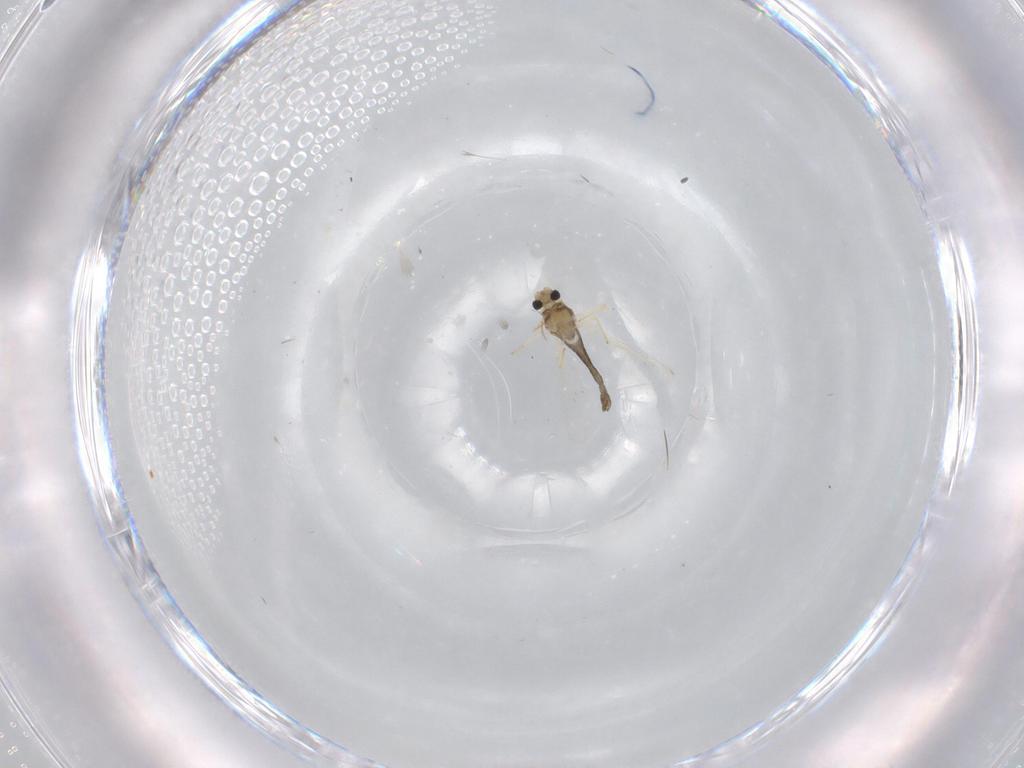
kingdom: Animalia
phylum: Arthropoda
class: Insecta
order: Diptera
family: Chironomidae
